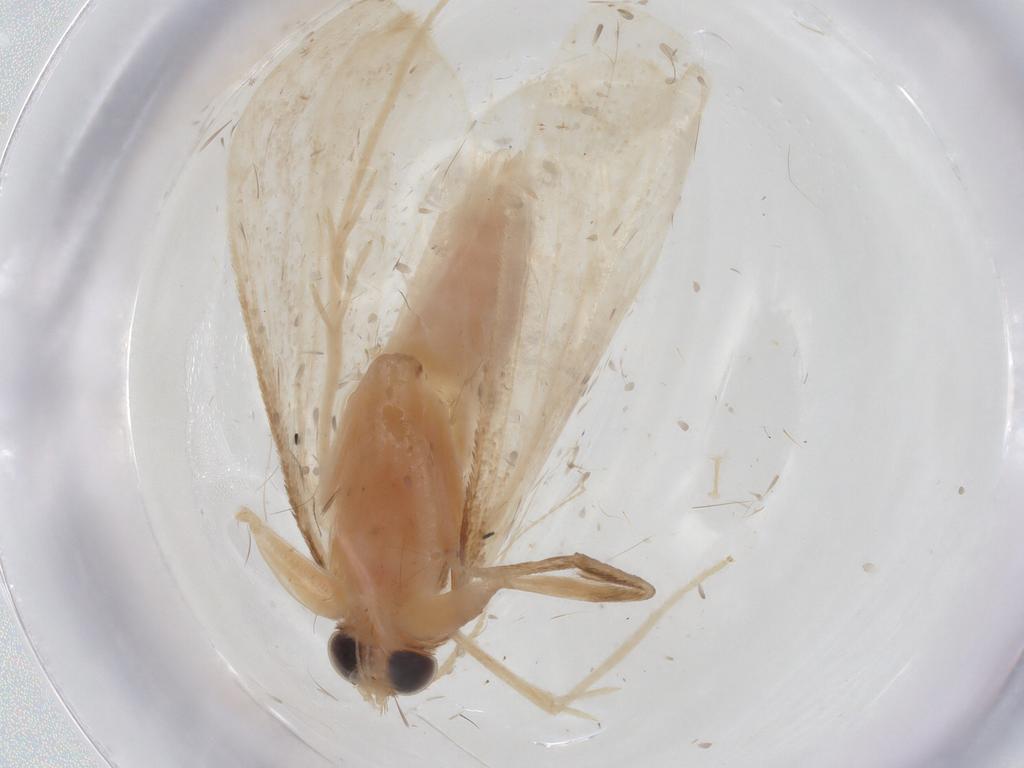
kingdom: Animalia
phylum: Arthropoda
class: Insecta
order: Lepidoptera
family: Crambidae
